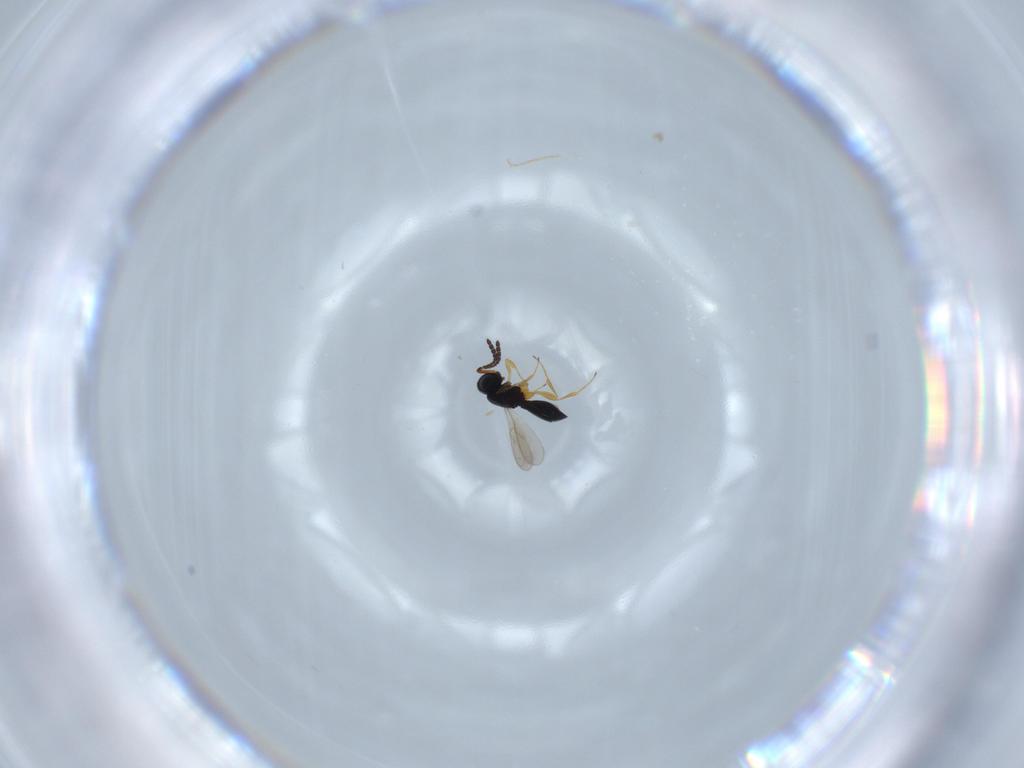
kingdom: Animalia
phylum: Arthropoda
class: Insecta
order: Hymenoptera
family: Scelionidae
